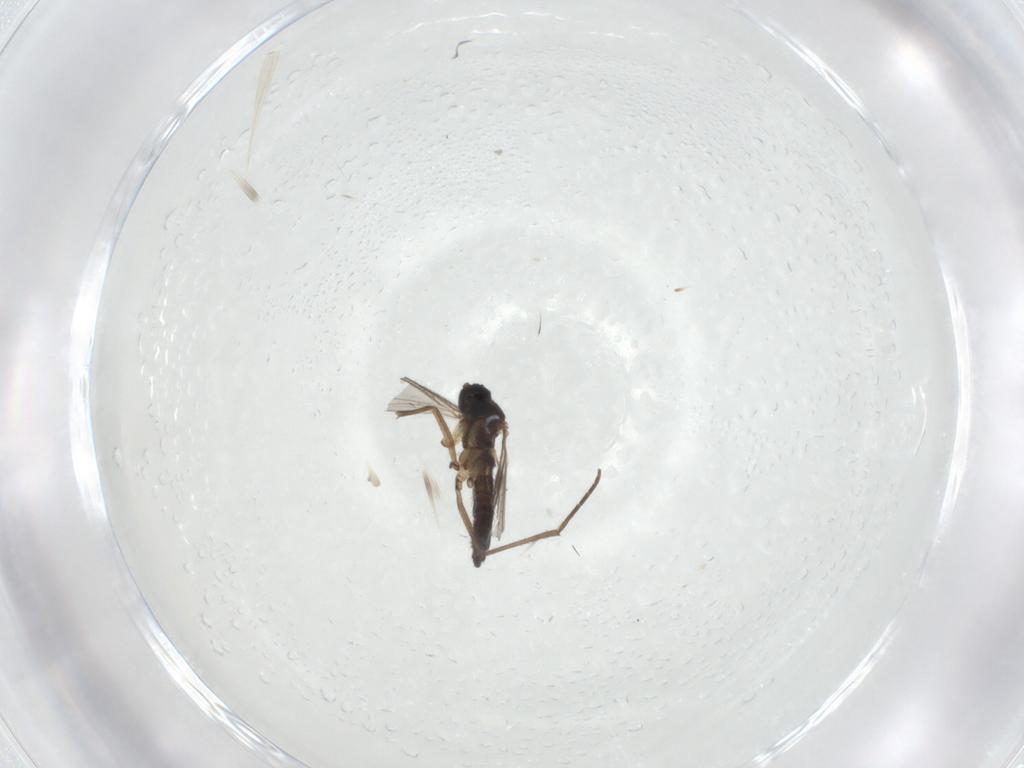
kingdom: Animalia
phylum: Arthropoda
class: Insecta
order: Diptera
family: Sciaridae
